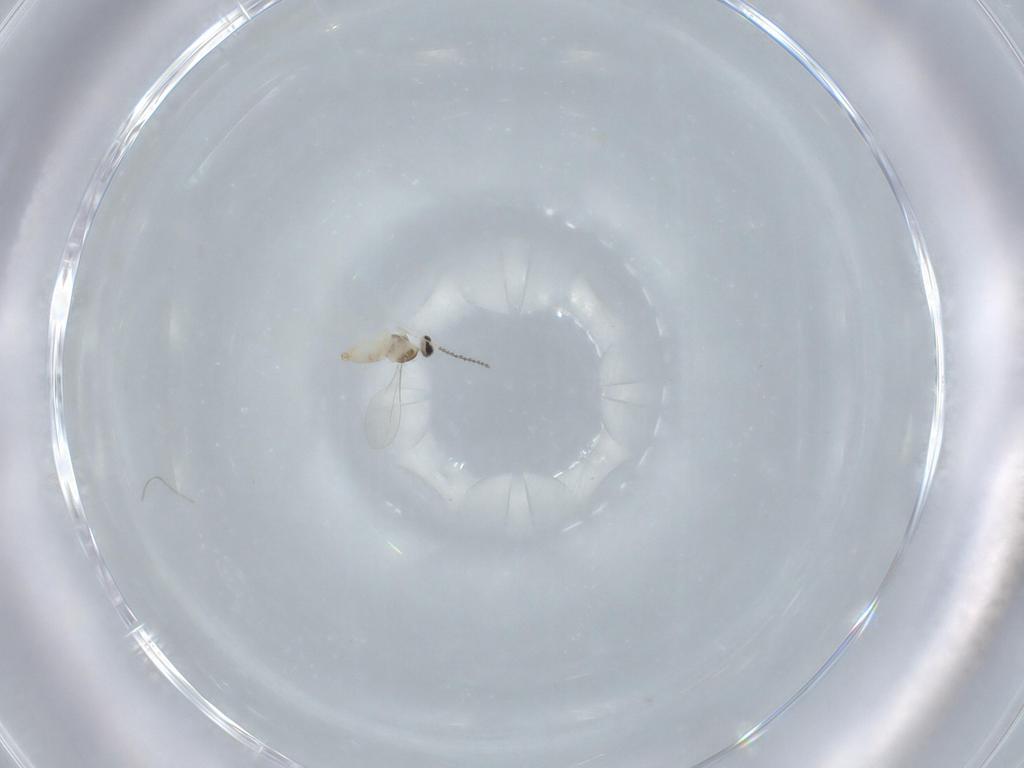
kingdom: Animalia
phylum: Arthropoda
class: Insecta
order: Diptera
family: Cecidomyiidae
